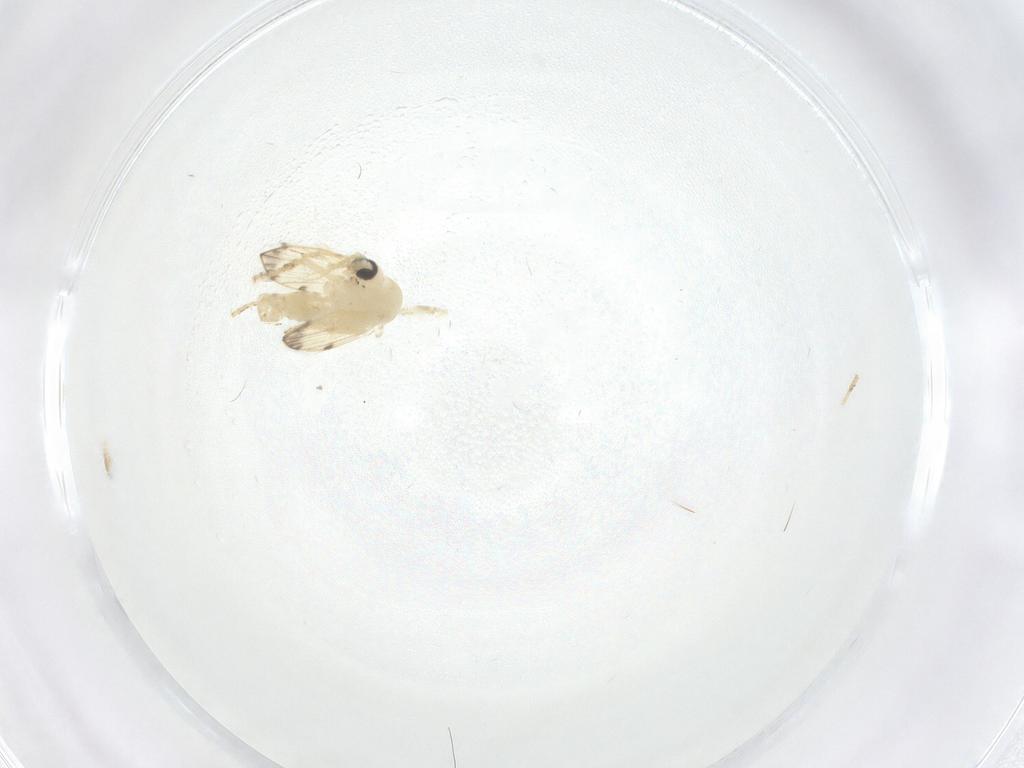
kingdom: Animalia
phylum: Arthropoda
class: Insecta
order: Diptera
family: Psychodidae
